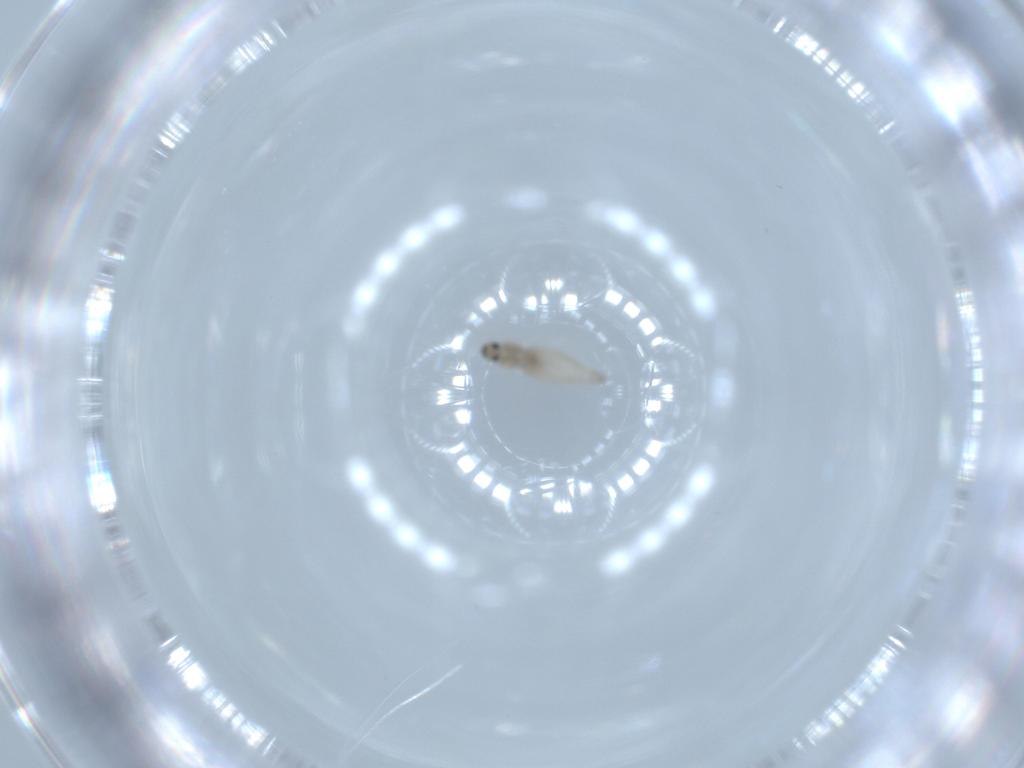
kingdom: Animalia
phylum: Arthropoda
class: Insecta
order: Diptera
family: Cecidomyiidae
